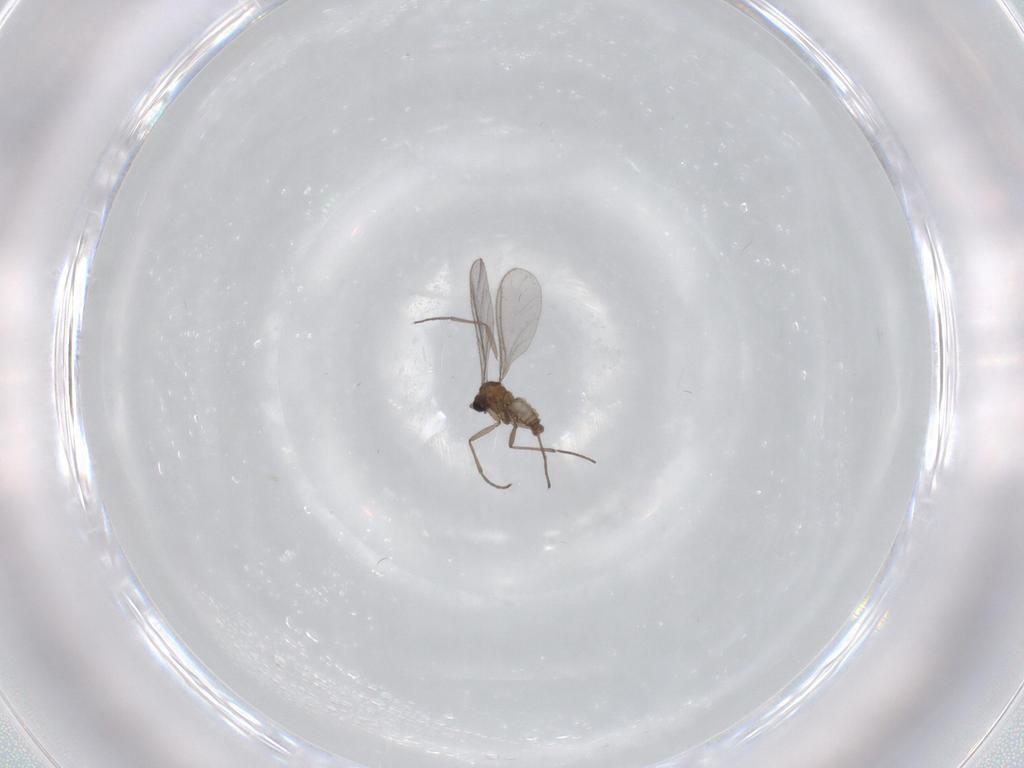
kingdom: Animalia
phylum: Arthropoda
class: Insecta
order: Diptera
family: Sciaridae
